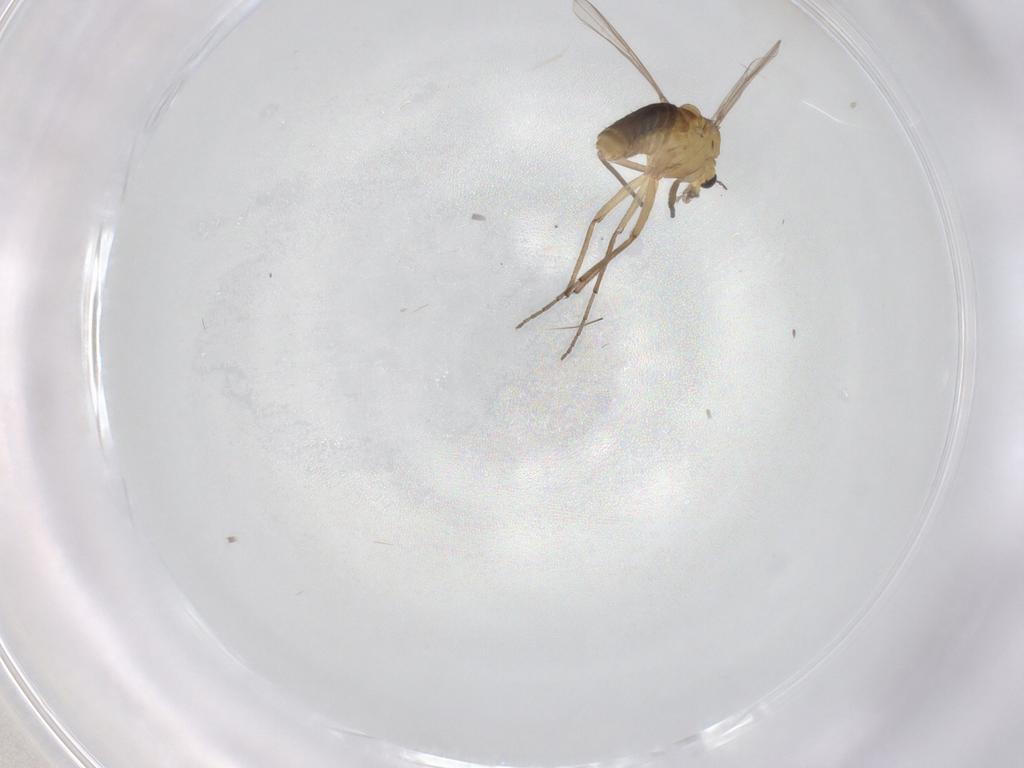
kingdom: Animalia
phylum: Arthropoda
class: Insecta
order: Diptera
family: Chironomidae
